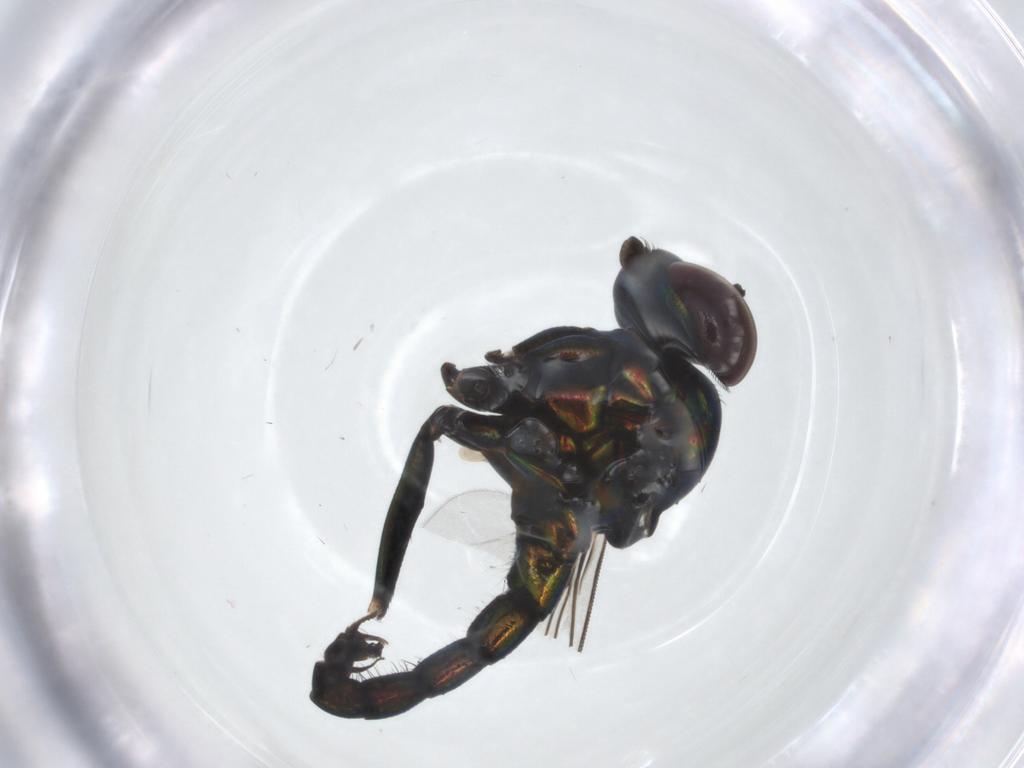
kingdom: Animalia
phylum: Arthropoda
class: Insecta
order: Diptera
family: Dolichopodidae
